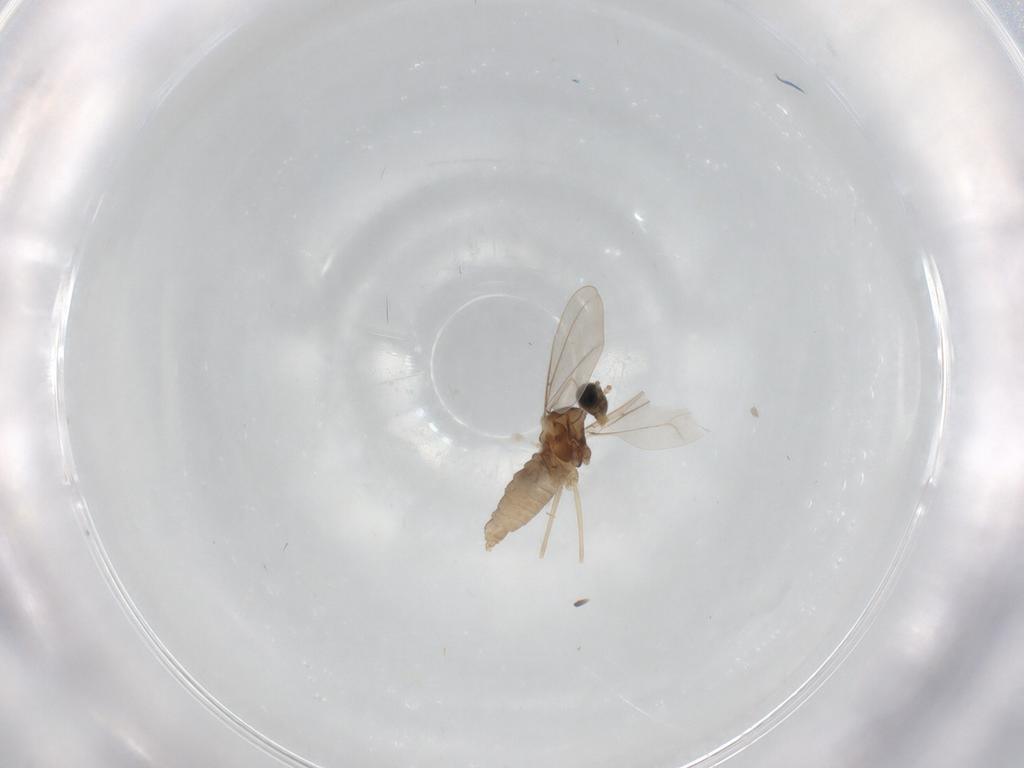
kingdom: Animalia
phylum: Arthropoda
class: Insecta
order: Diptera
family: Cecidomyiidae
